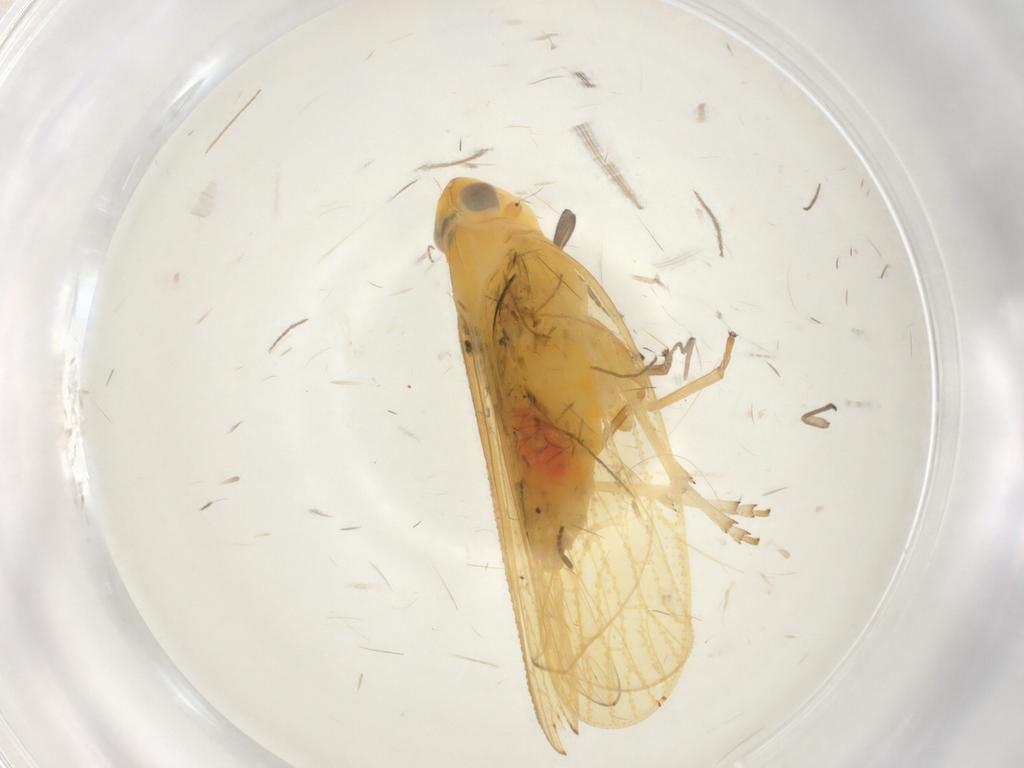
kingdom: Animalia
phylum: Arthropoda
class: Insecta
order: Hemiptera
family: Cixiidae
